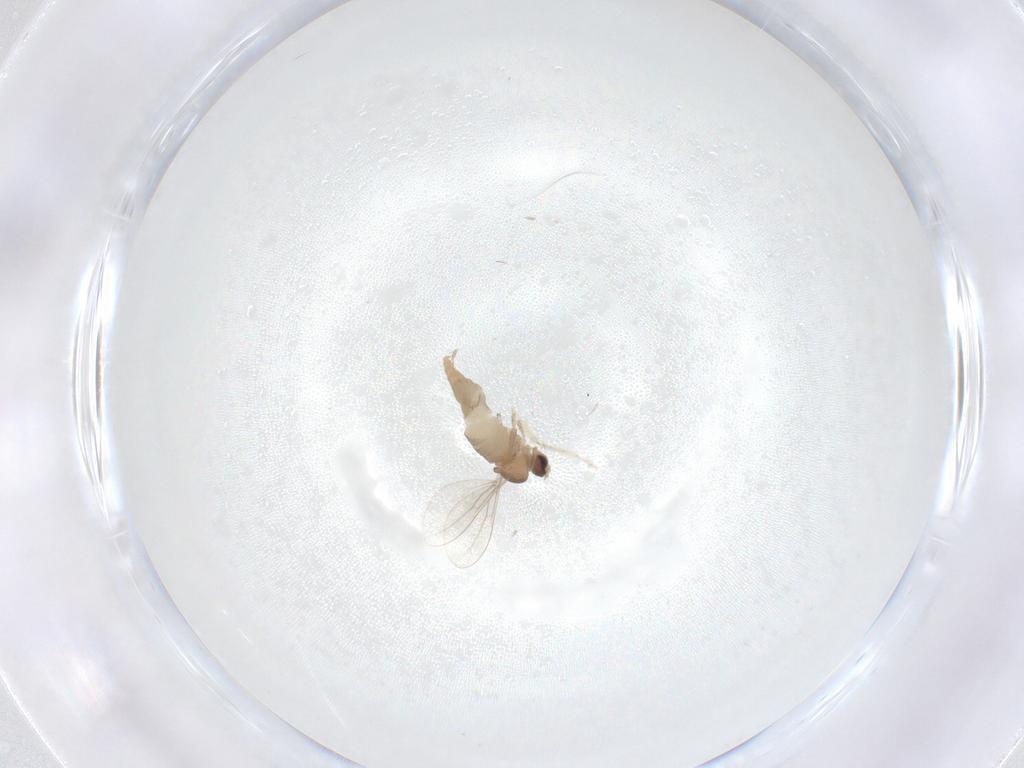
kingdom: Animalia
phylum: Arthropoda
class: Insecta
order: Diptera
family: Cecidomyiidae
